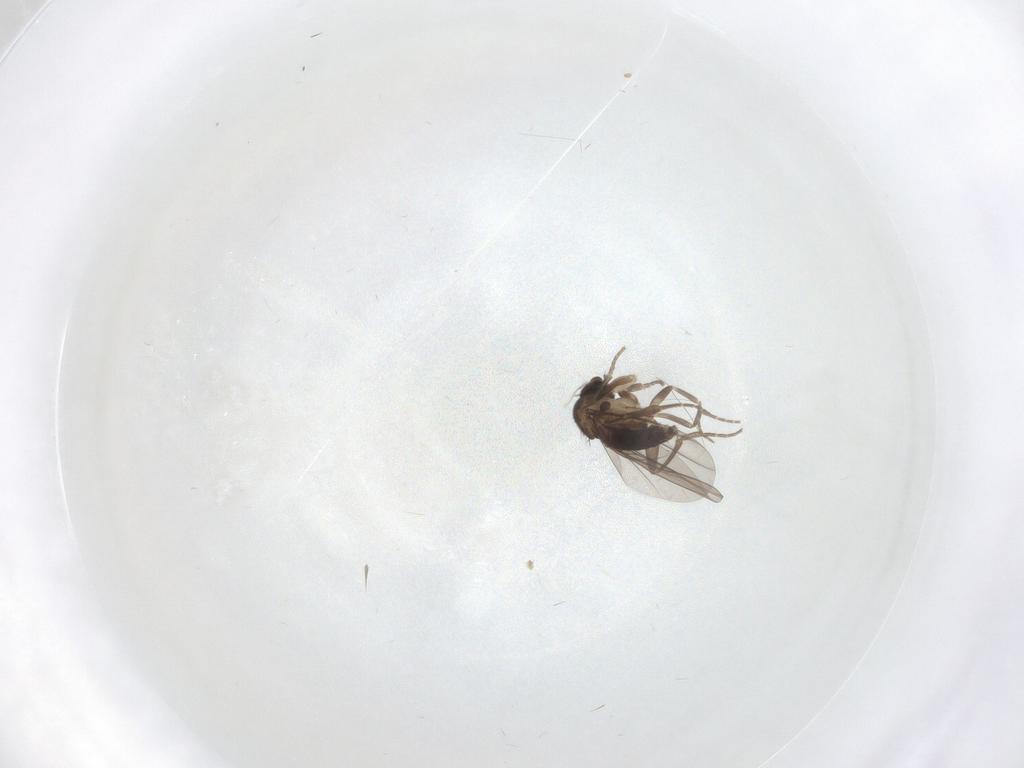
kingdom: Animalia
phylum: Arthropoda
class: Insecta
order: Diptera
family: Phoridae
